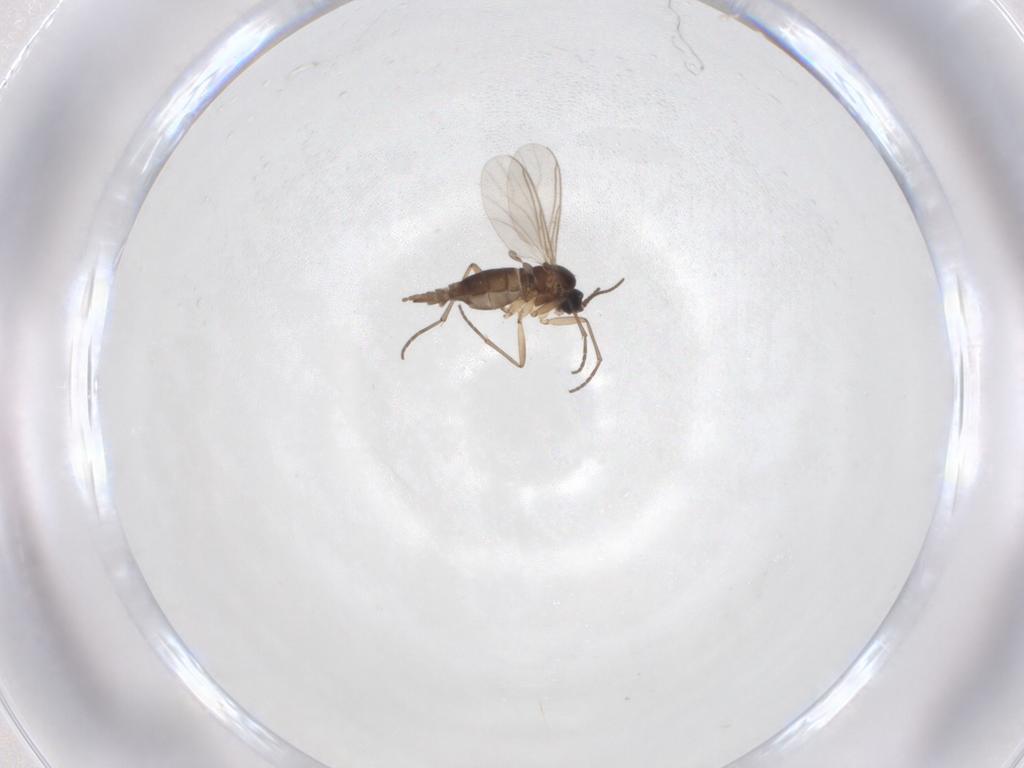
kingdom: Animalia
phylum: Arthropoda
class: Insecta
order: Diptera
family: Sciaridae
